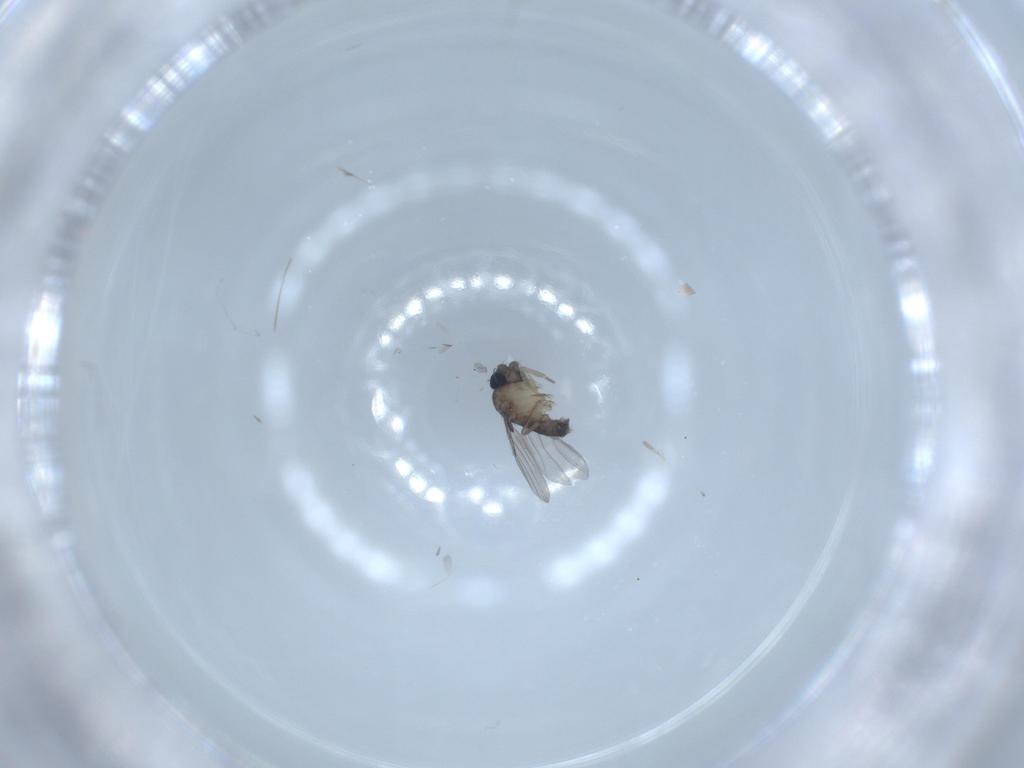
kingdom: Animalia
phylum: Arthropoda
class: Insecta
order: Diptera
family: Phoridae
